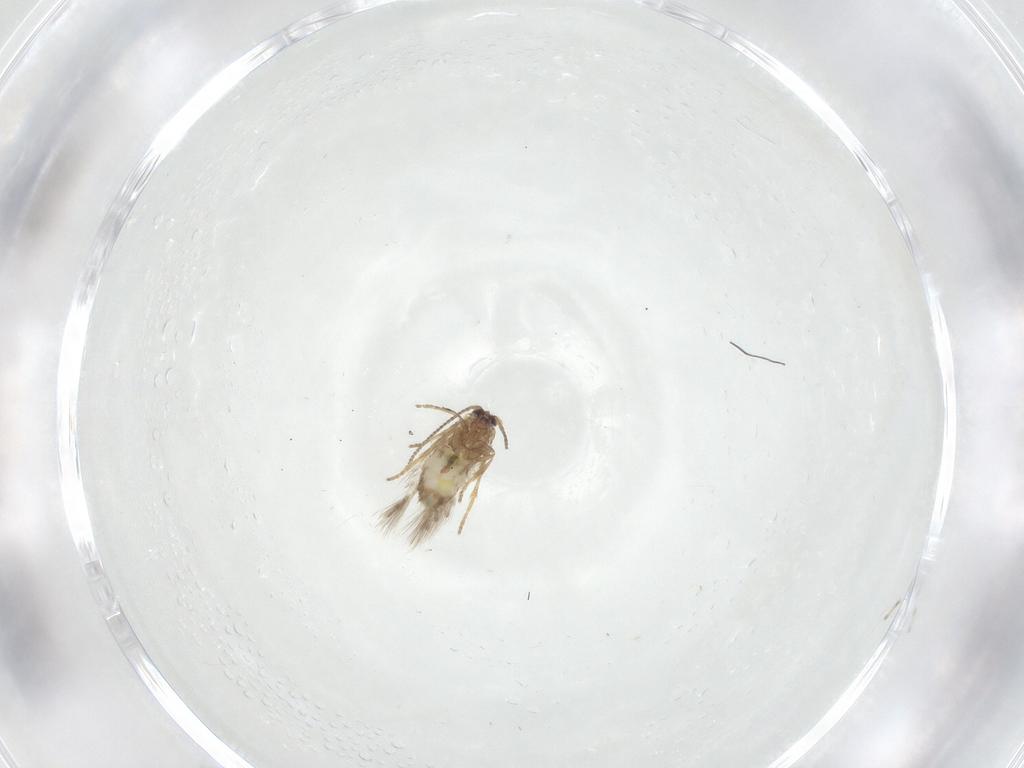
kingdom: Animalia
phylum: Arthropoda
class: Insecta
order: Lepidoptera
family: Nepticulidae
